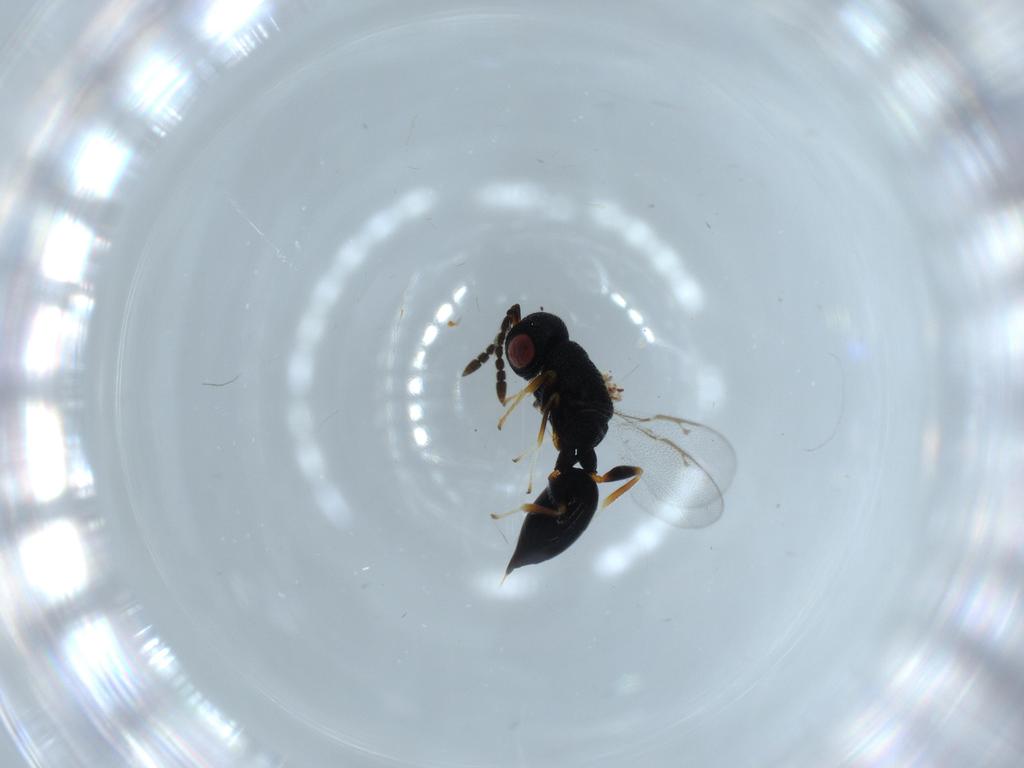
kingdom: Animalia
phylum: Arthropoda
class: Insecta
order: Hymenoptera
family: Eurytomidae
